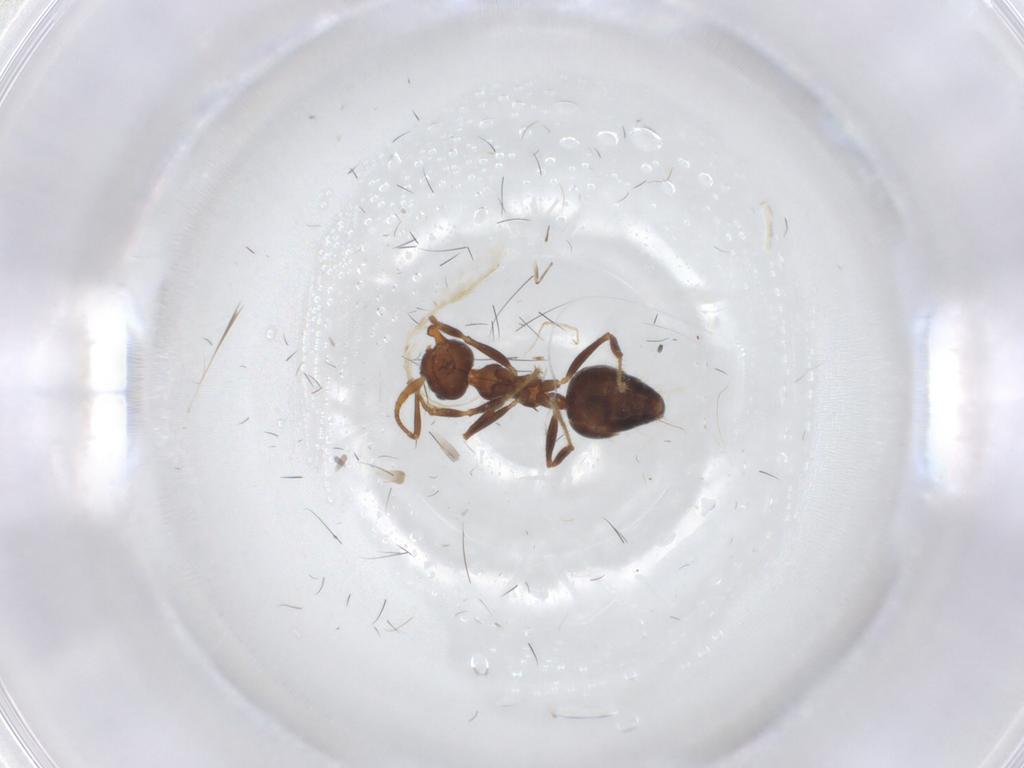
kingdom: Animalia
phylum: Arthropoda
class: Insecta
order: Hymenoptera
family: Formicidae
